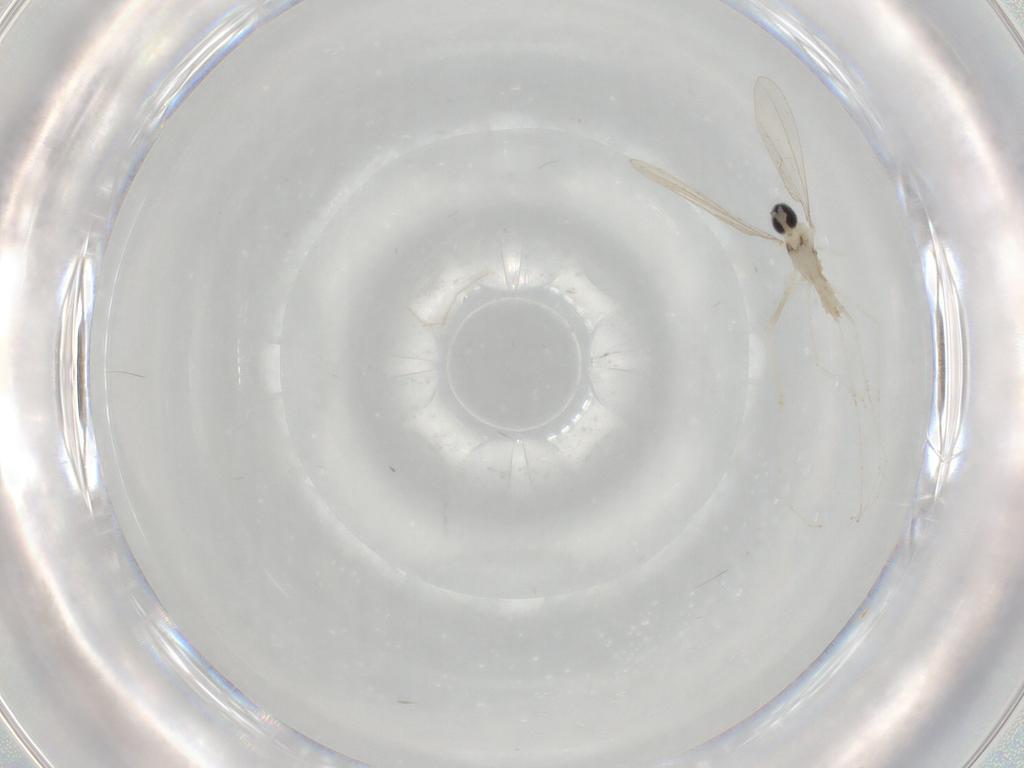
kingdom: Animalia
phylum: Arthropoda
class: Insecta
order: Diptera
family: Cecidomyiidae
